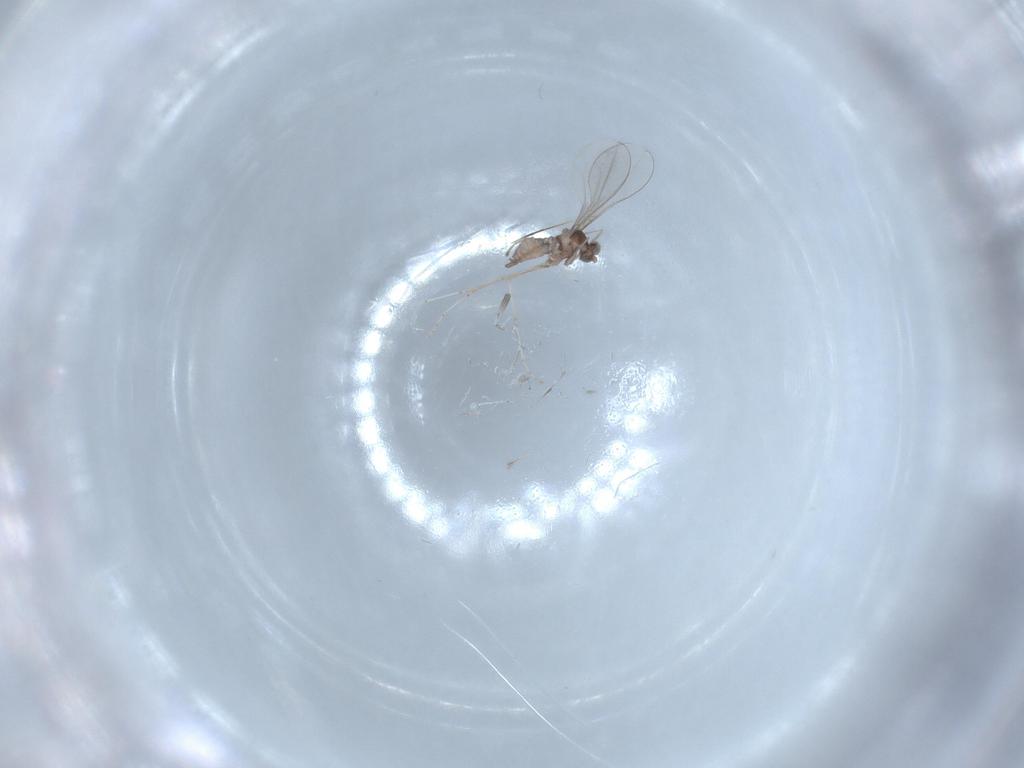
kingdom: Animalia
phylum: Arthropoda
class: Insecta
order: Diptera
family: Cecidomyiidae
